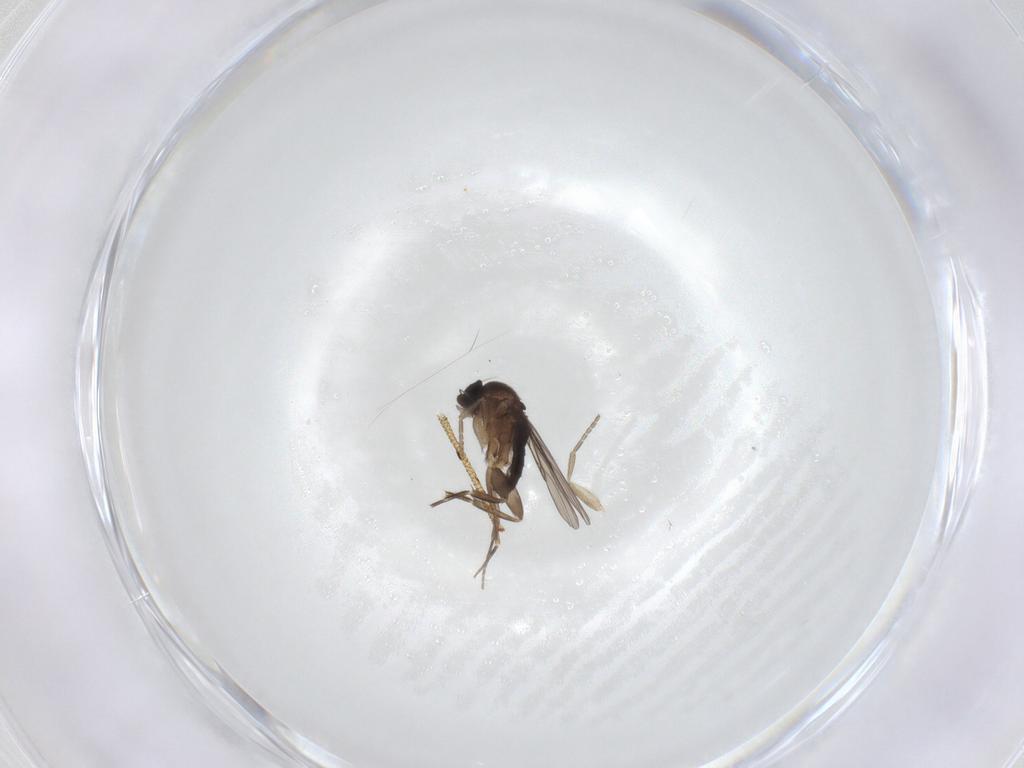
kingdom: Animalia
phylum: Arthropoda
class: Insecta
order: Diptera
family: Phoridae
